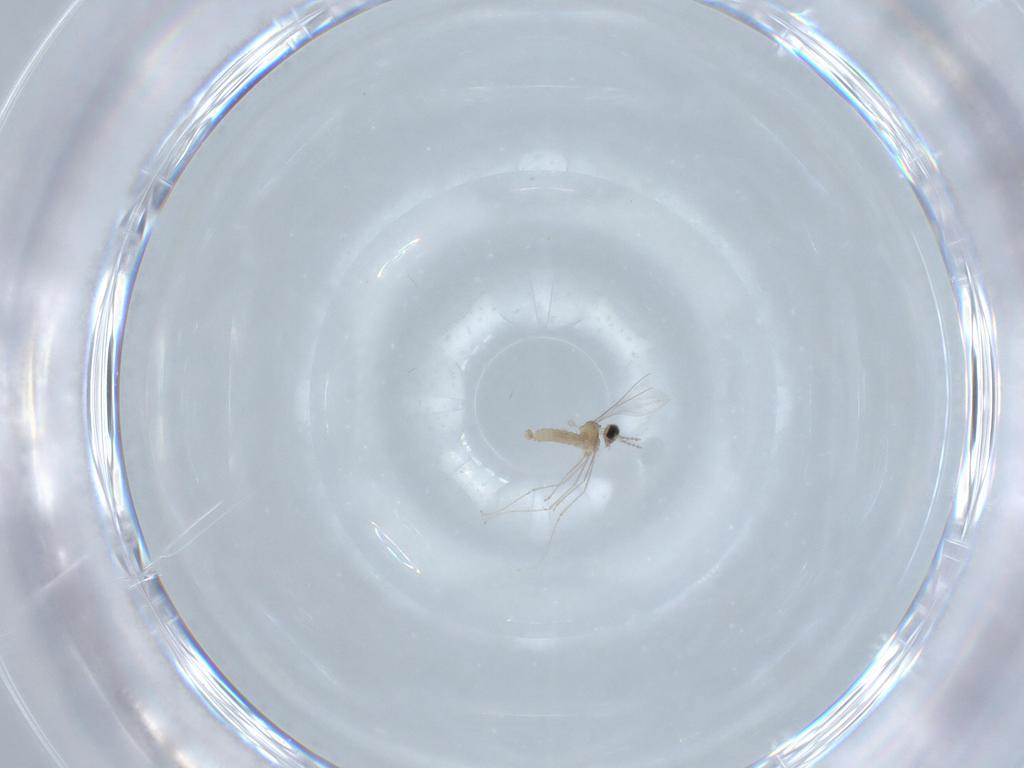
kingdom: Animalia
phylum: Arthropoda
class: Insecta
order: Diptera
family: Cecidomyiidae
